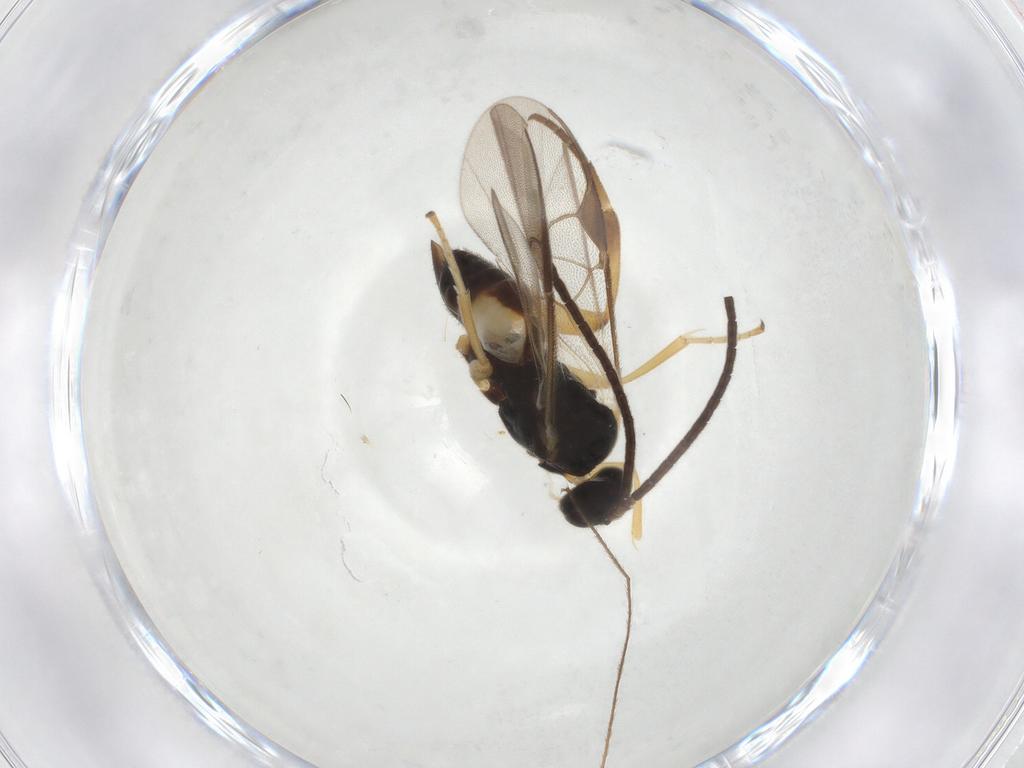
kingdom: Animalia
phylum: Arthropoda
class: Insecta
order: Hymenoptera
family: Braconidae
